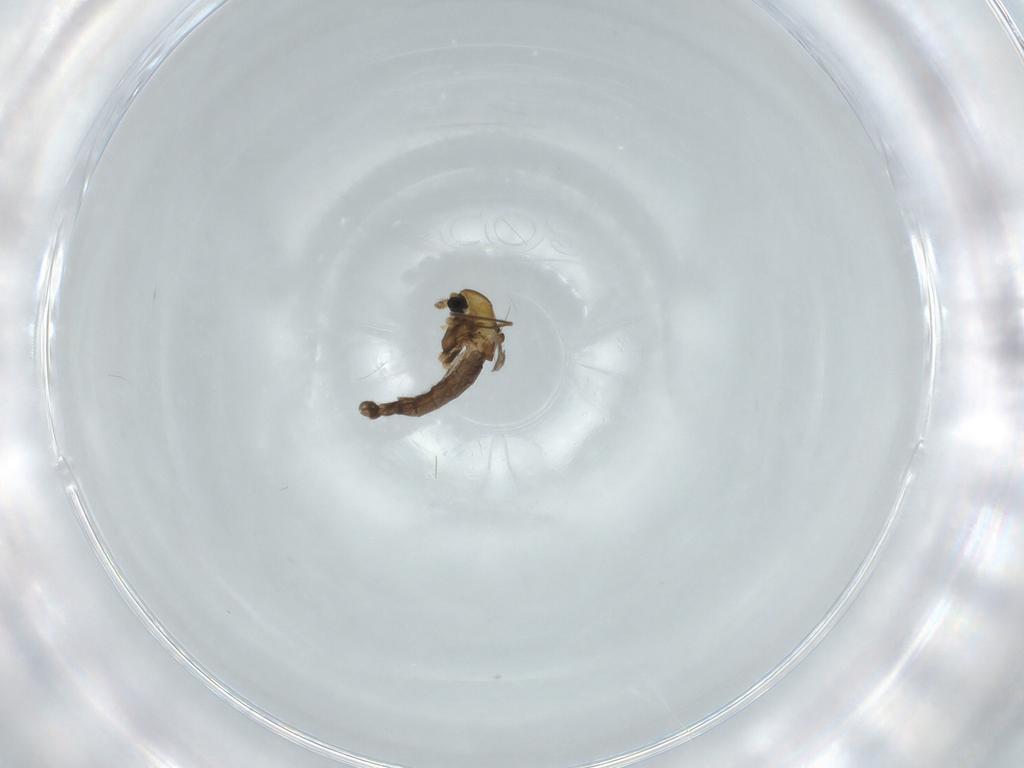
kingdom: Animalia
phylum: Arthropoda
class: Insecta
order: Diptera
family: Chironomidae
